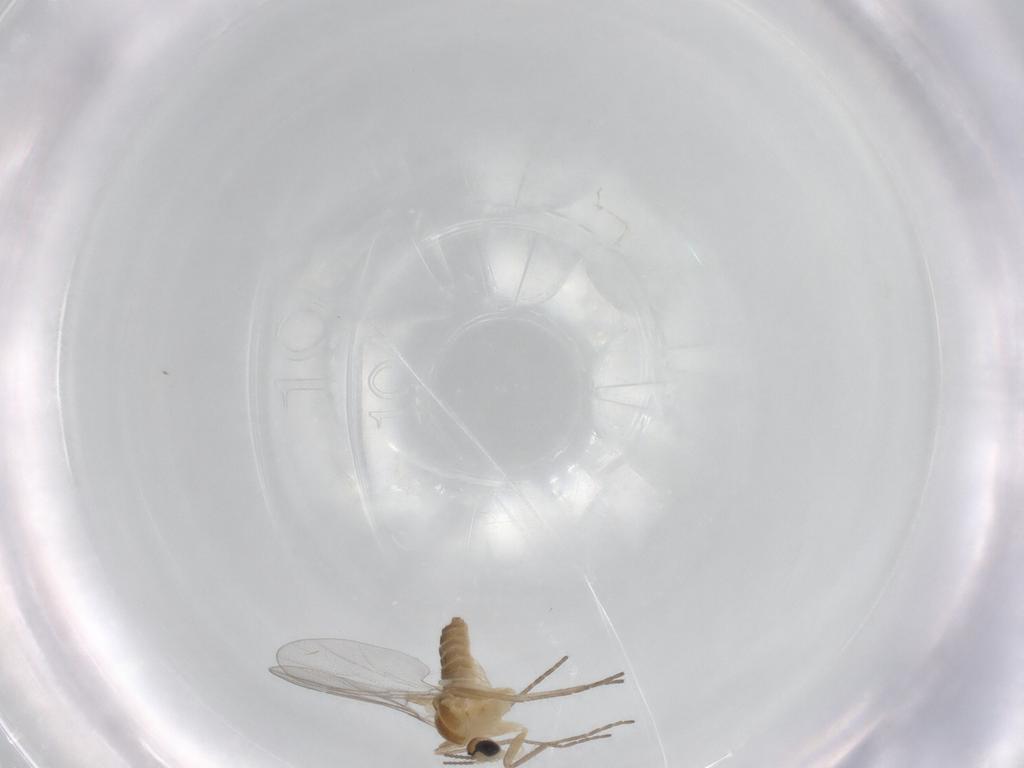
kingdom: Animalia
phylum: Arthropoda
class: Insecta
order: Diptera
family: Cecidomyiidae
